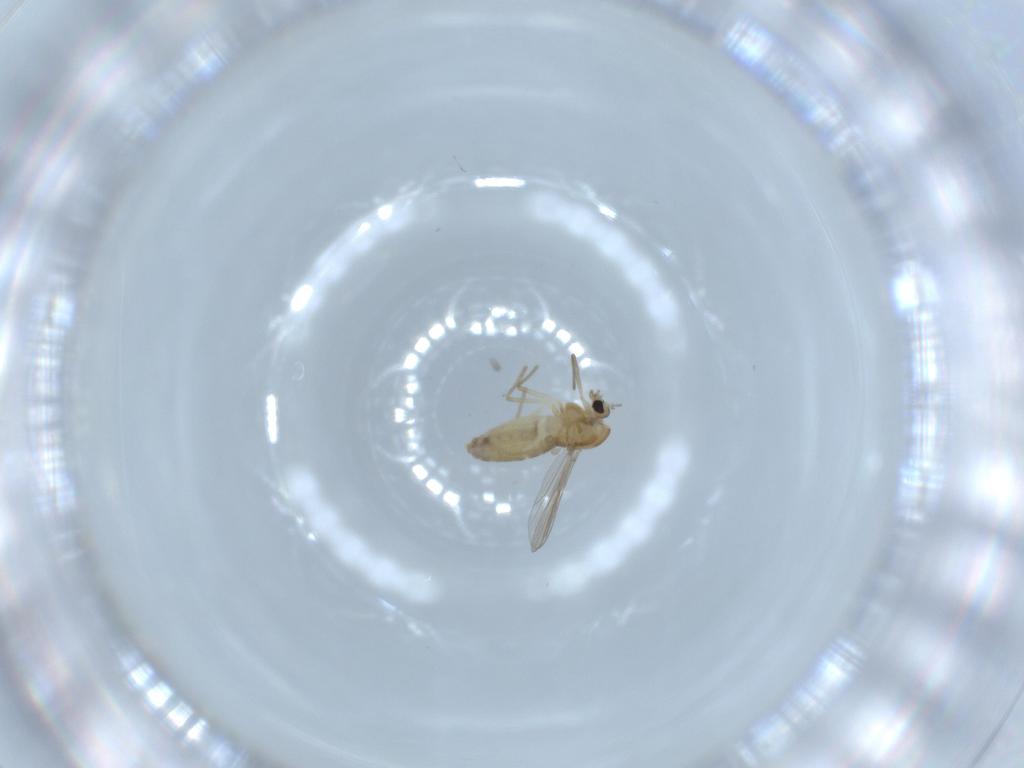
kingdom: Animalia
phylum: Arthropoda
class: Insecta
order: Diptera
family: Chironomidae
